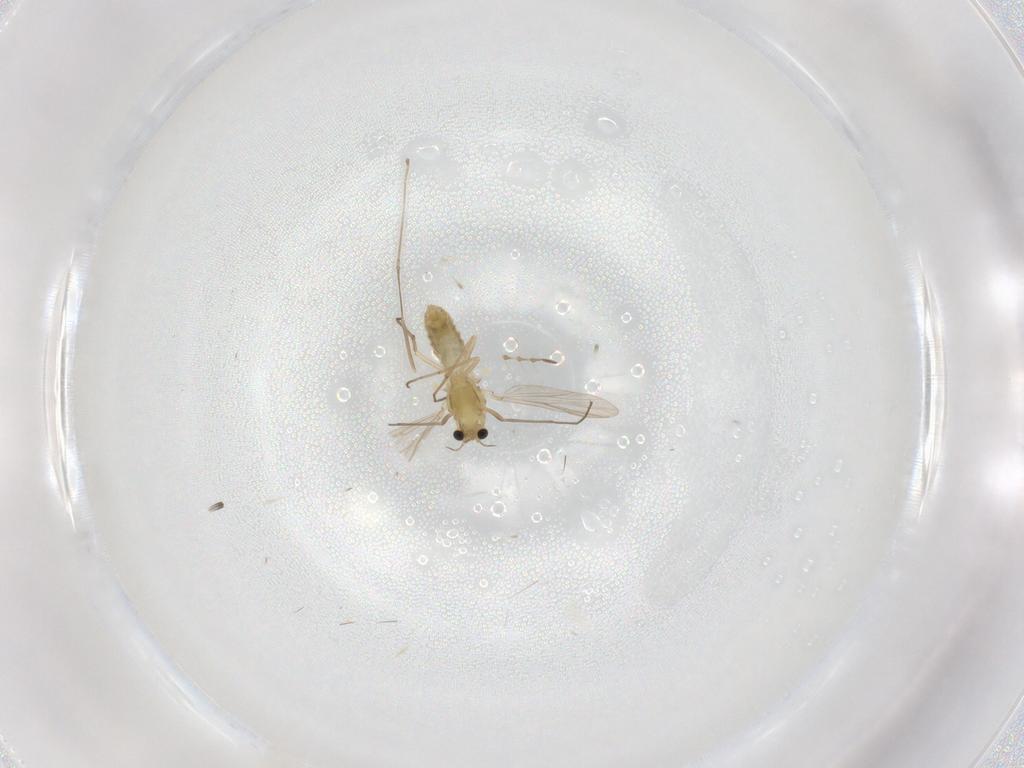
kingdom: Animalia
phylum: Arthropoda
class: Insecta
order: Diptera
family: Chironomidae
